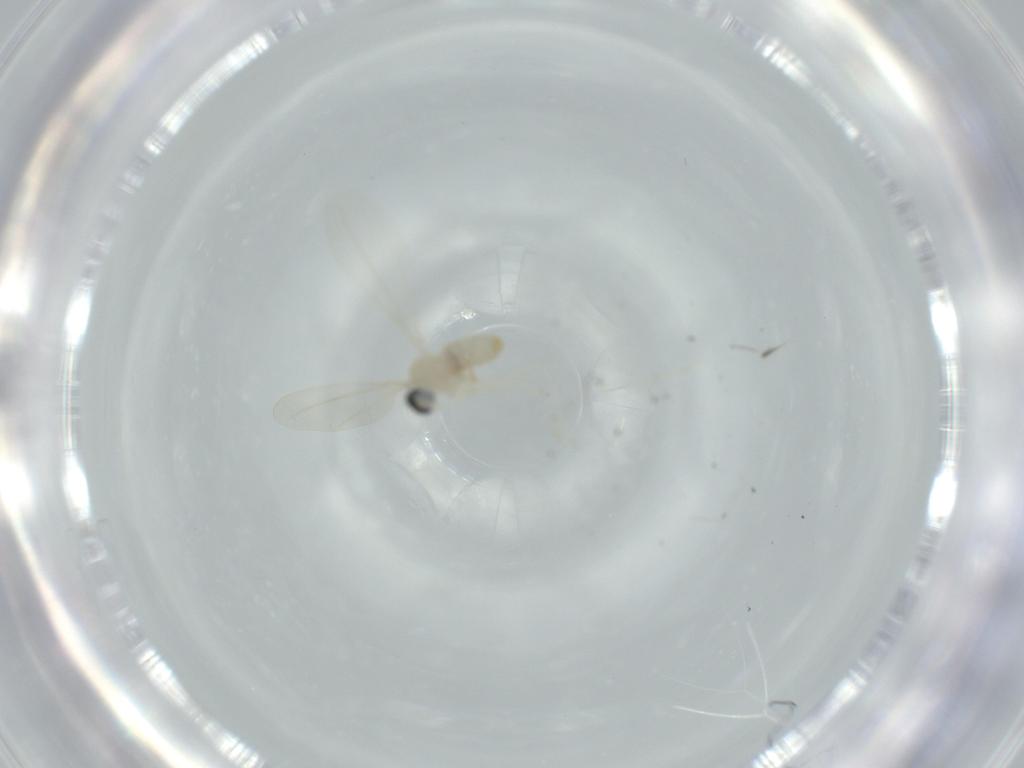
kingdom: Animalia
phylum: Arthropoda
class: Insecta
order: Diptera
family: Cecidomyiidae
